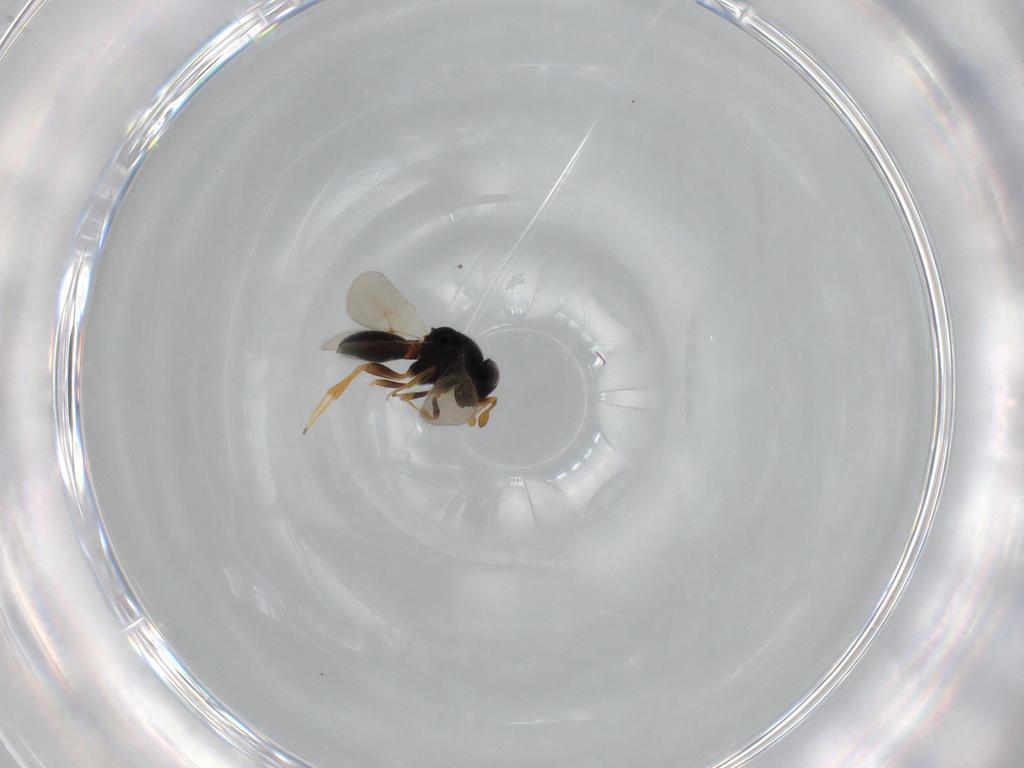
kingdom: Animalia
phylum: Arthropoda
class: Insecta
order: Hymenoptera
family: Scelionidae
